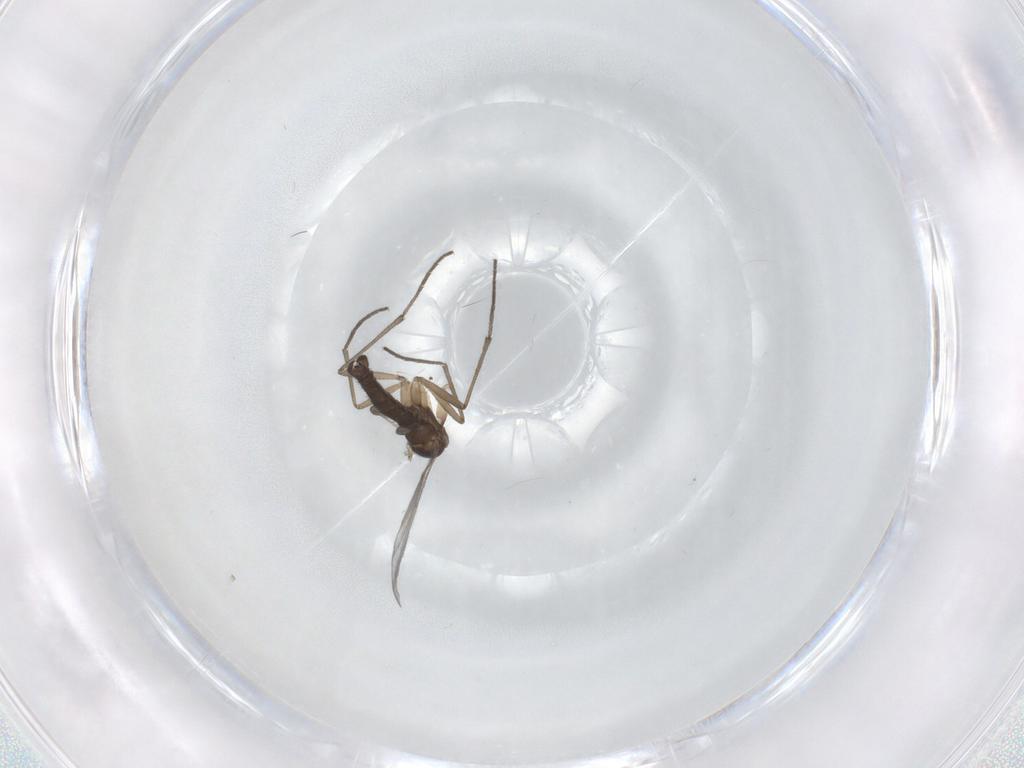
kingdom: Animalia
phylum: Arthropoda
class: Insecta
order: Diptera
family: Sciaridae
